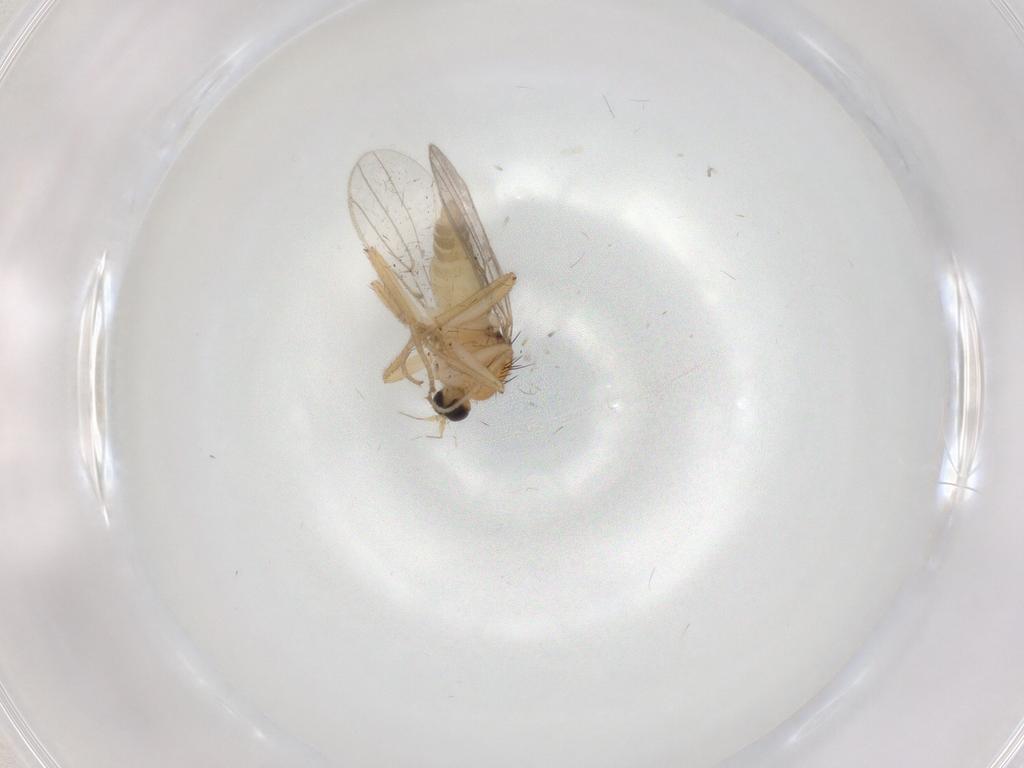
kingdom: Animalia
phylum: Arthropoda
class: Insecta
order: Diptera
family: Hybotidae
